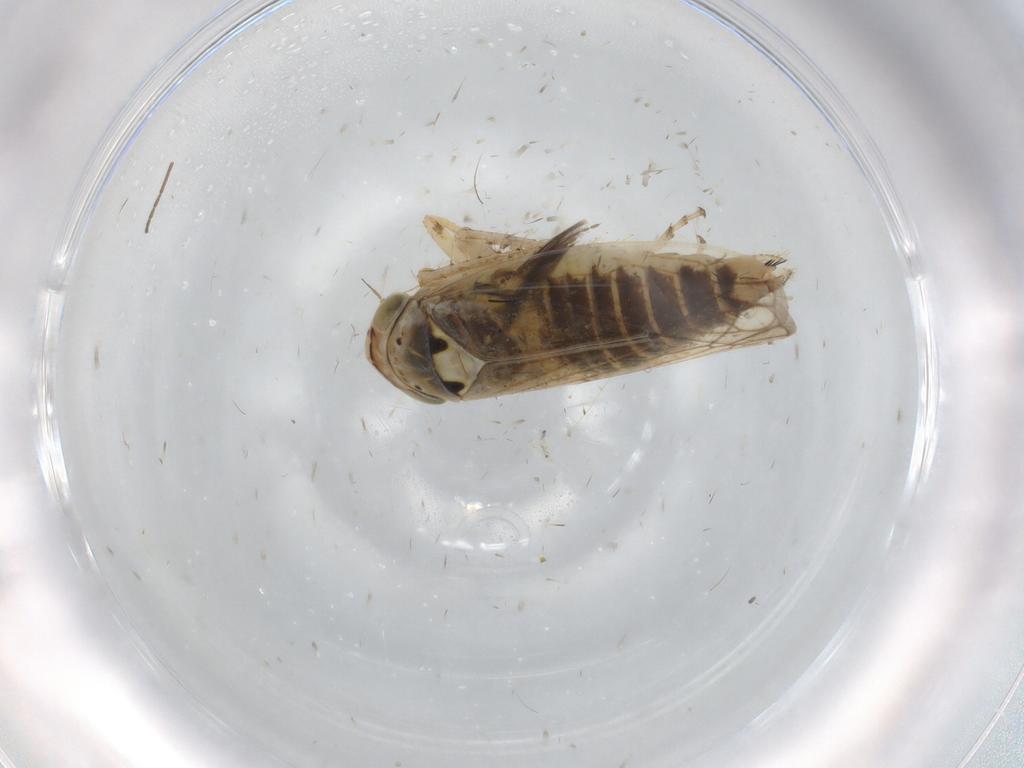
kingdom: Animalia
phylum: Arthropoda
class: Insecta
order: Hemiptera
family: Cicadellidae
